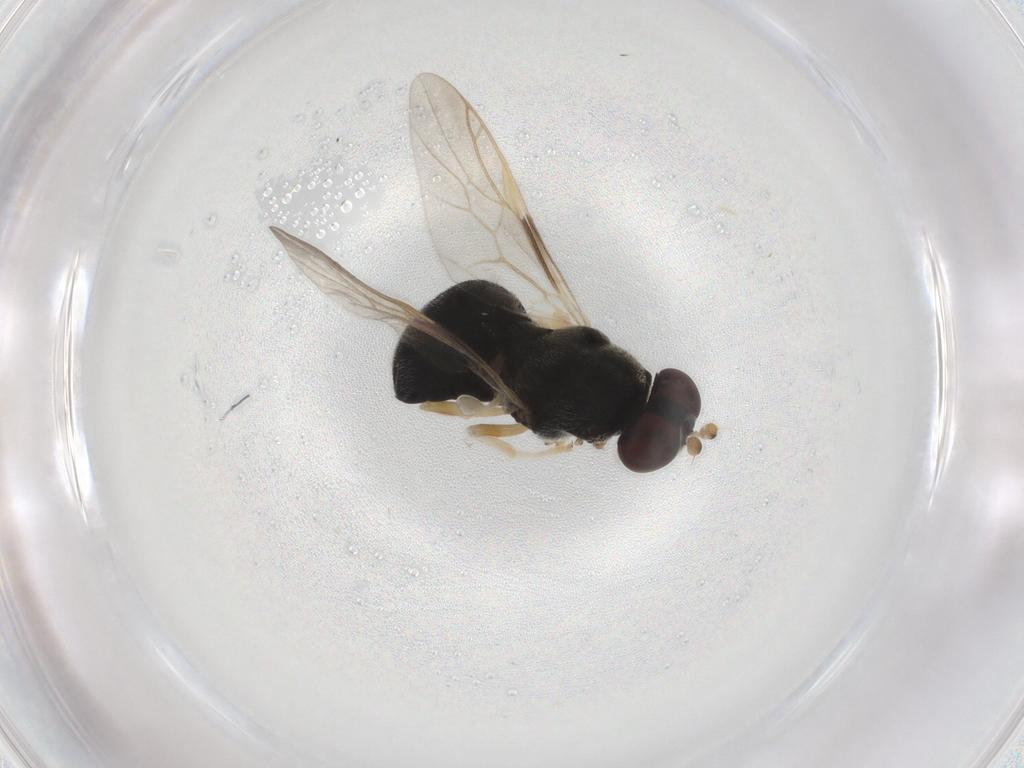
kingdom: Animalia
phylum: Arthropoda
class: Insecta
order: Diptera
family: Stratiomyidae
